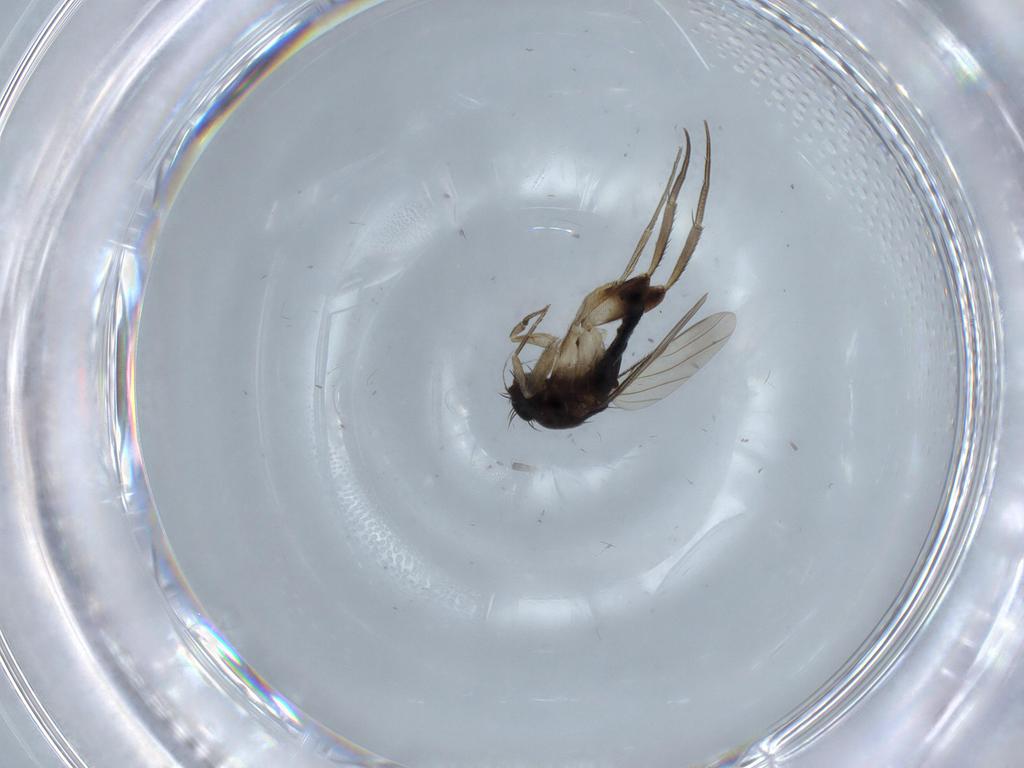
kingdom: Animalia
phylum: Arthropoda
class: Insecta
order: Diptera
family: Phoridae
